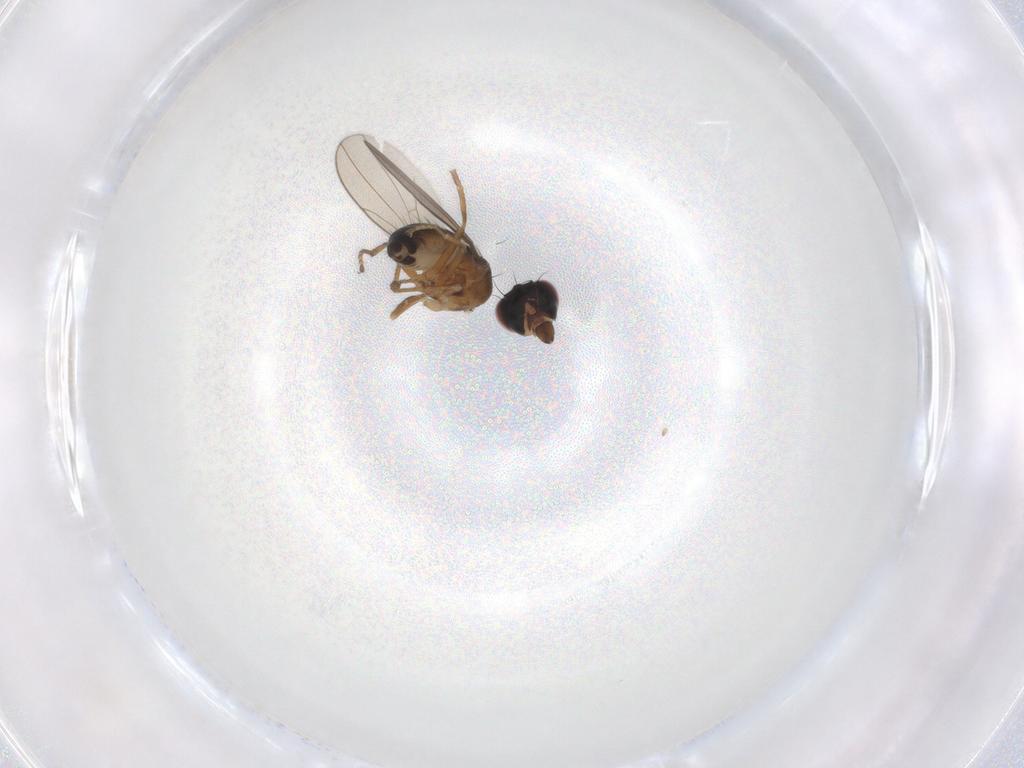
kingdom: Animalia
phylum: Arthropoda
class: Insecta
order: Diptera
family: Ephydridae
